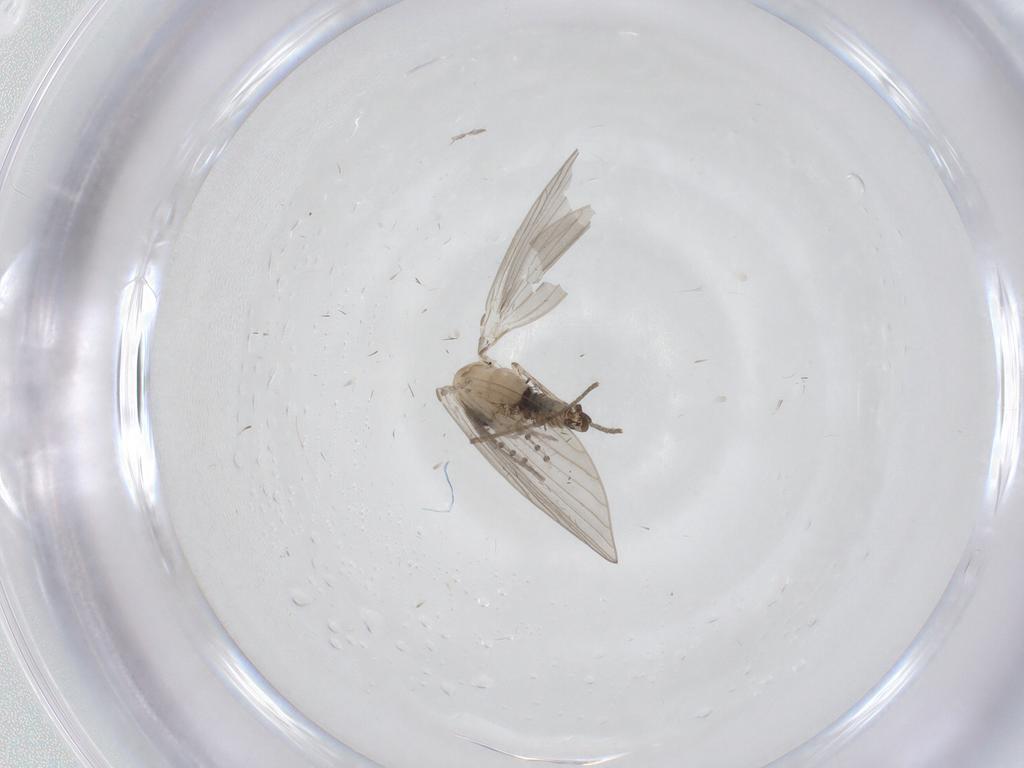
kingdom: Animalia
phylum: Arthropoda
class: Insecta
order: Diptera
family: Psychodidae
